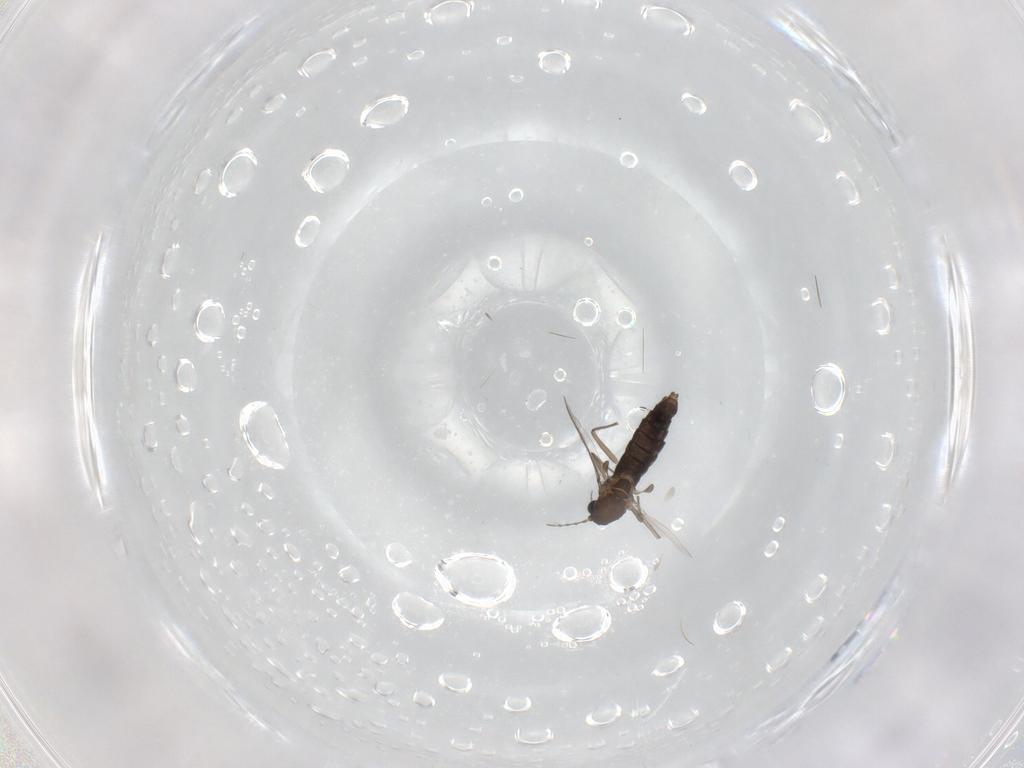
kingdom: Animalia
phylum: Arthropoda
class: Insecta
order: Diptera
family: Chironomidae
